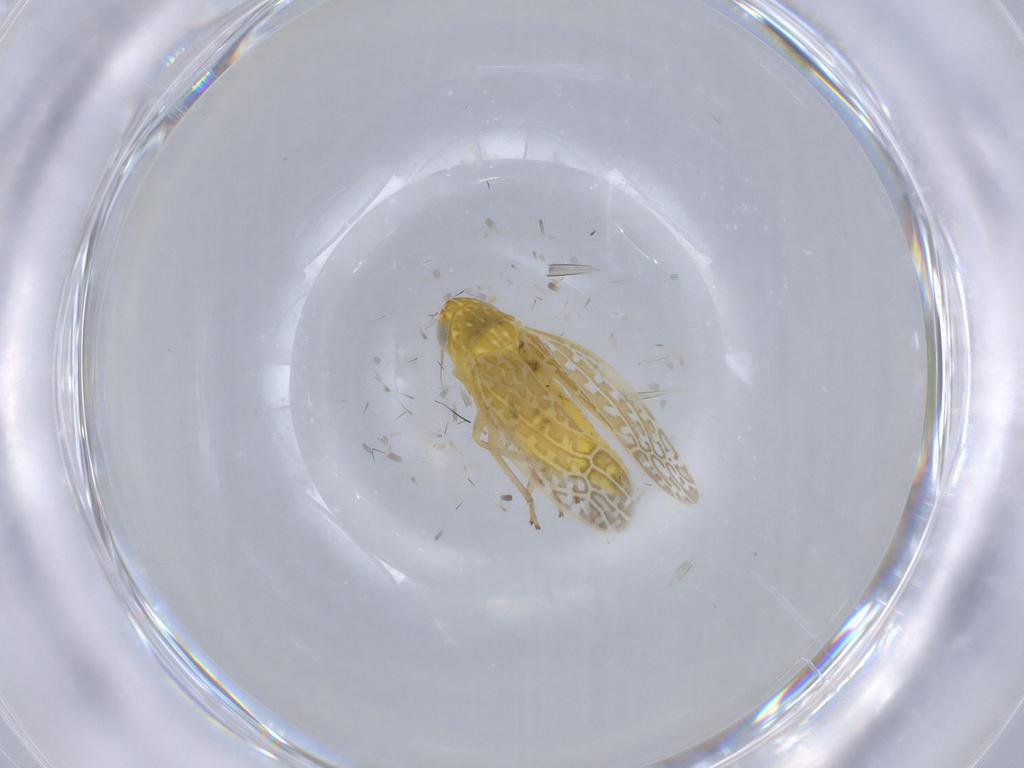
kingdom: Animalia
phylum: Arthropoda
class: Insecta
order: Hemiptera
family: Cicadellidae
